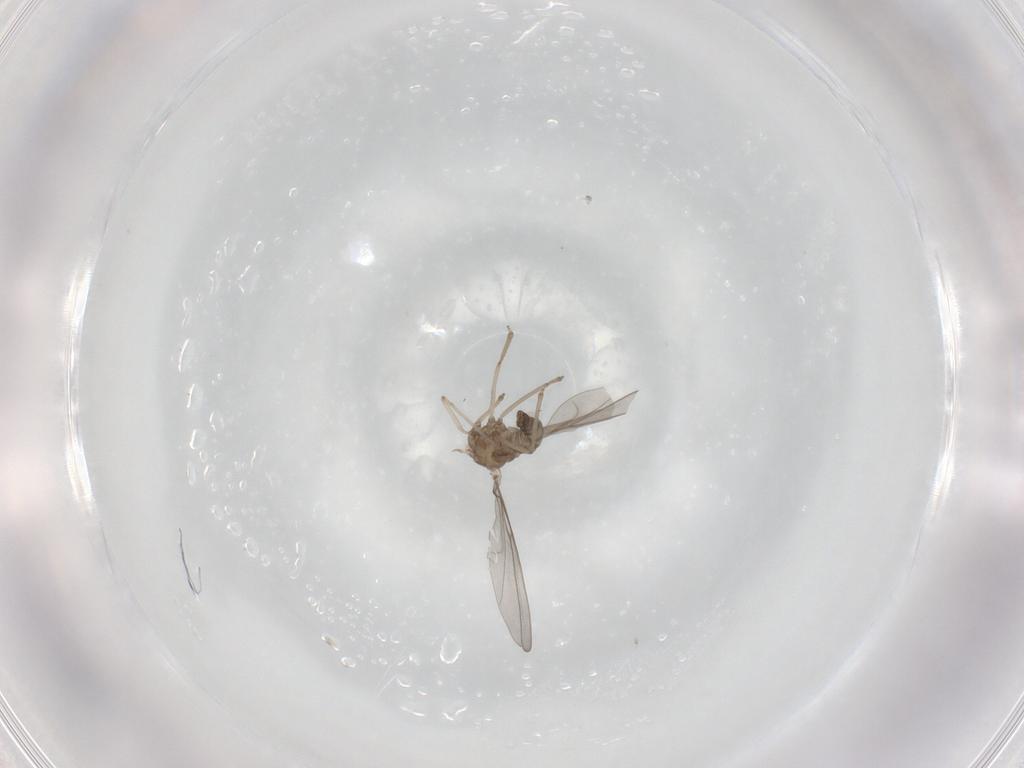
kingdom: Animalia
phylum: Arthropoda
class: Insecta
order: Diptera
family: Cecidomyiidae
